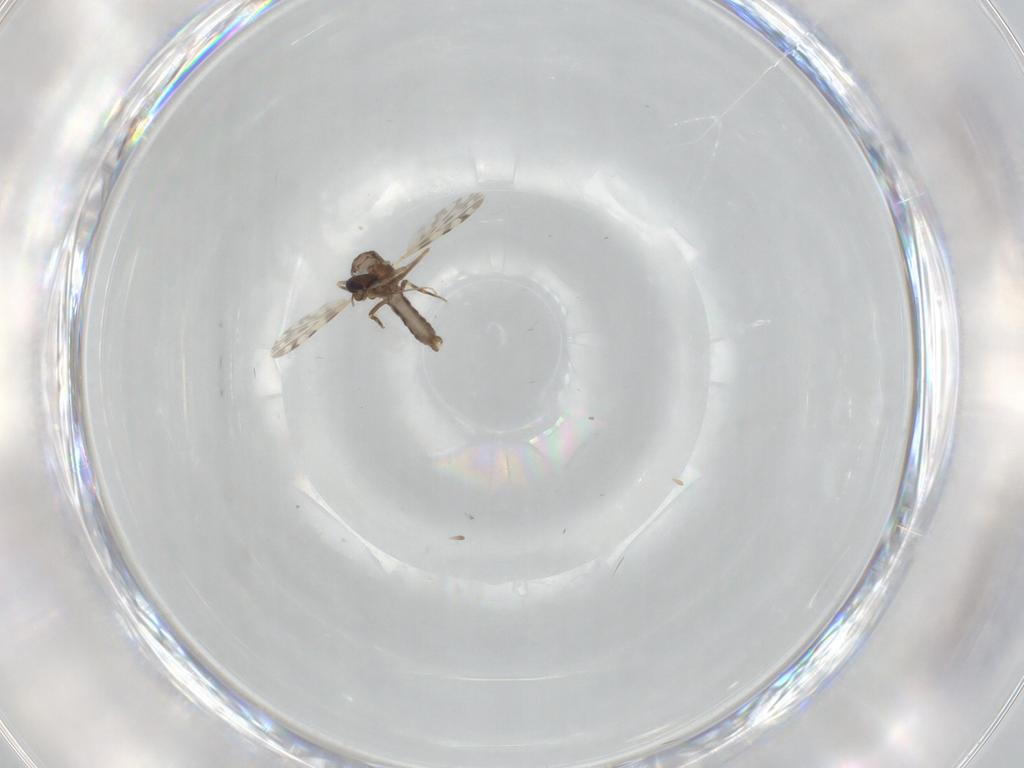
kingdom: Animalia
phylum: Arthropoda
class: Insecta
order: Diptera
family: Ceratopogonidae
